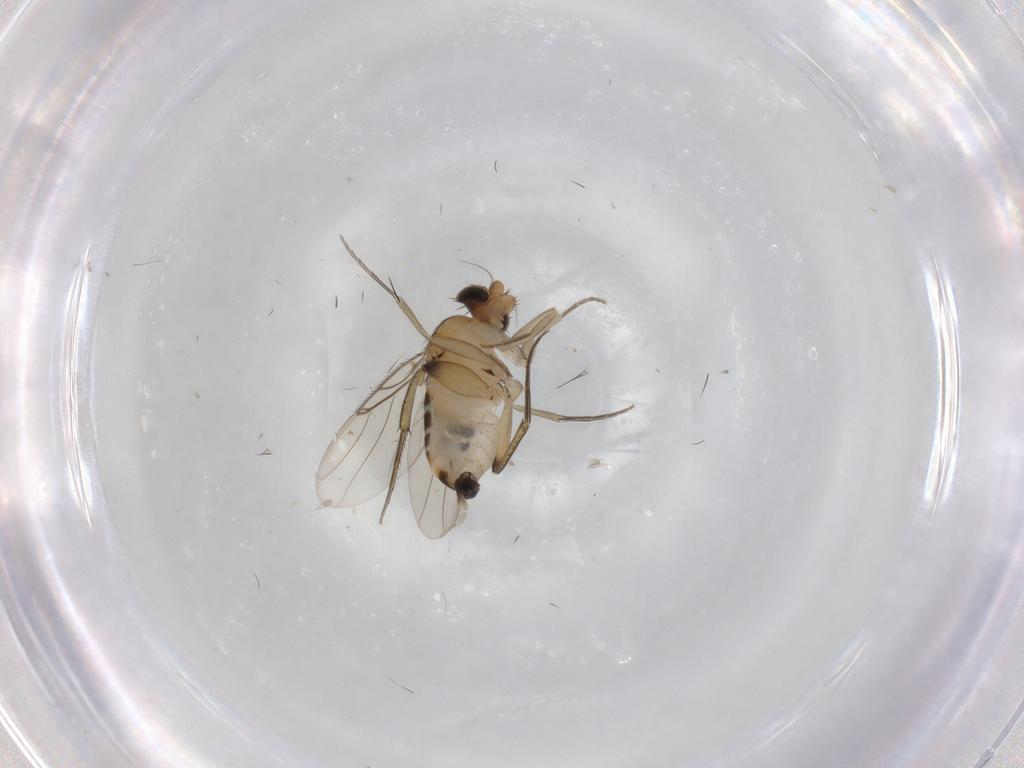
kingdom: Animalia
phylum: Arthropoda
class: Insecta
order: Diptera
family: Phoridae
